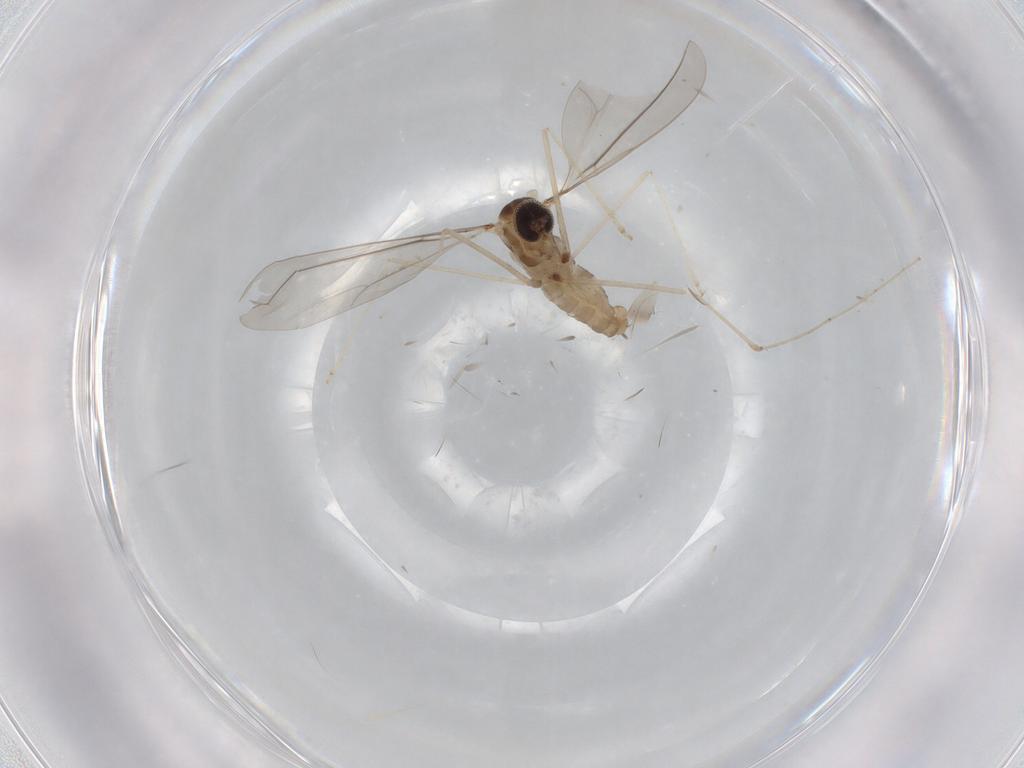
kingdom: Animalia
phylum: Arthropoda
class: Insecta
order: Diptera
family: Cecidomyiidae
